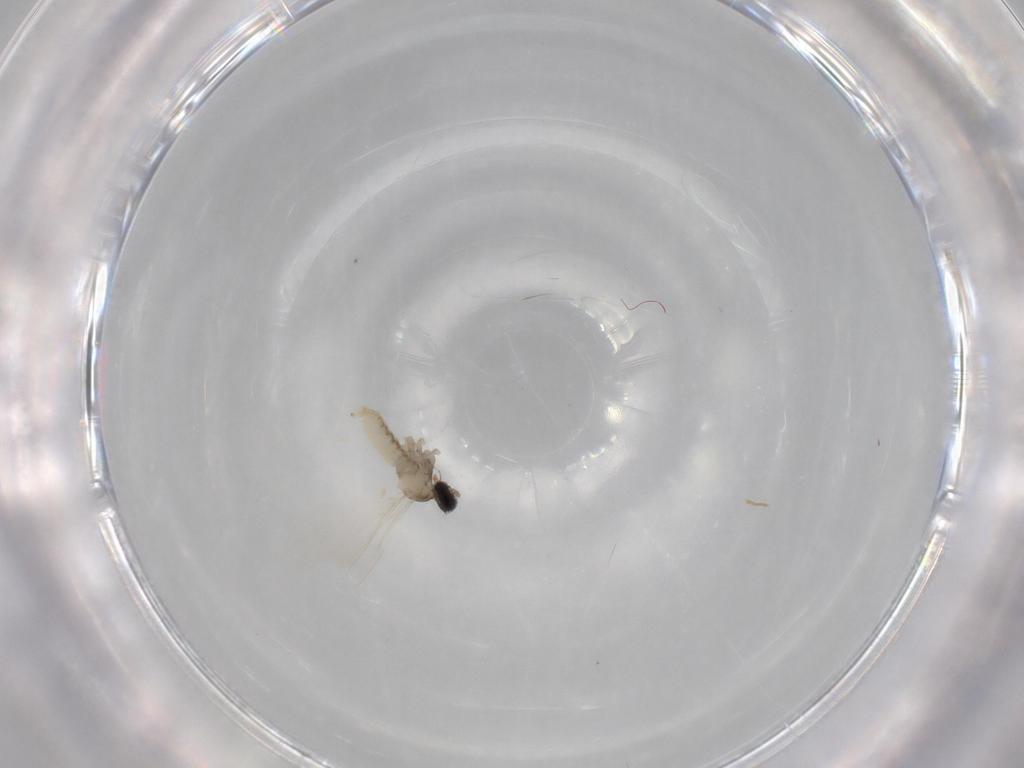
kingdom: Animalia
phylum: Arthropoda
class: Insecta
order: Diptera
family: Cecidomyiidae
